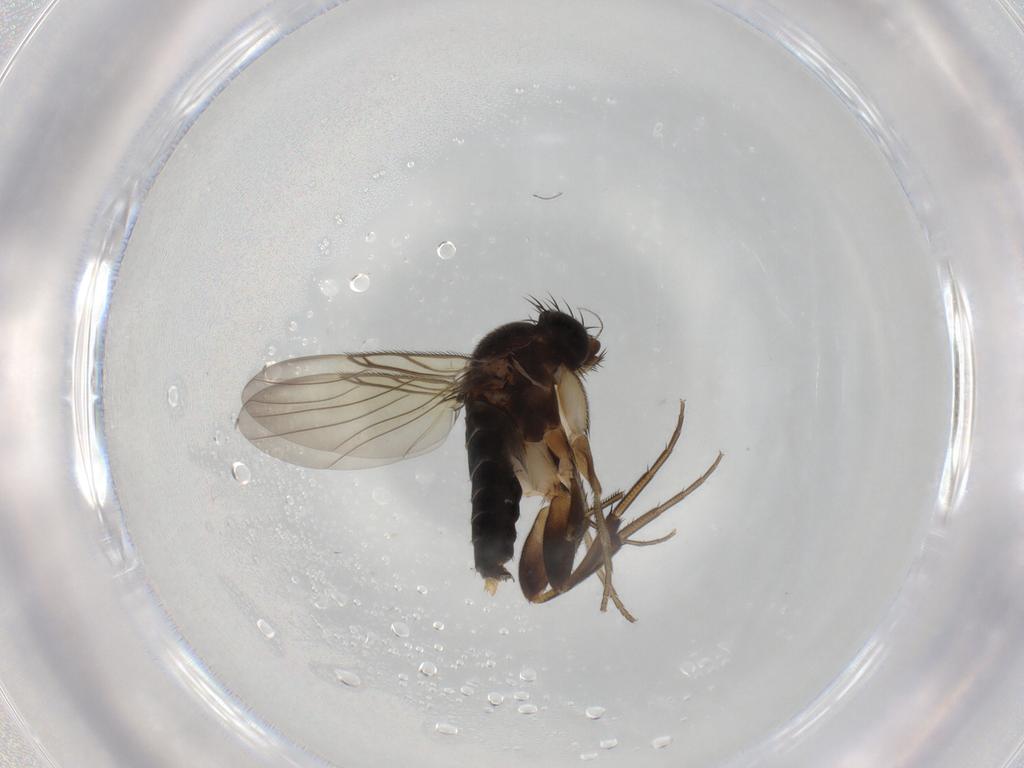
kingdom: Animalia
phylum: Arthropoda
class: Insecta
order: Diptera
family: Phoridae
